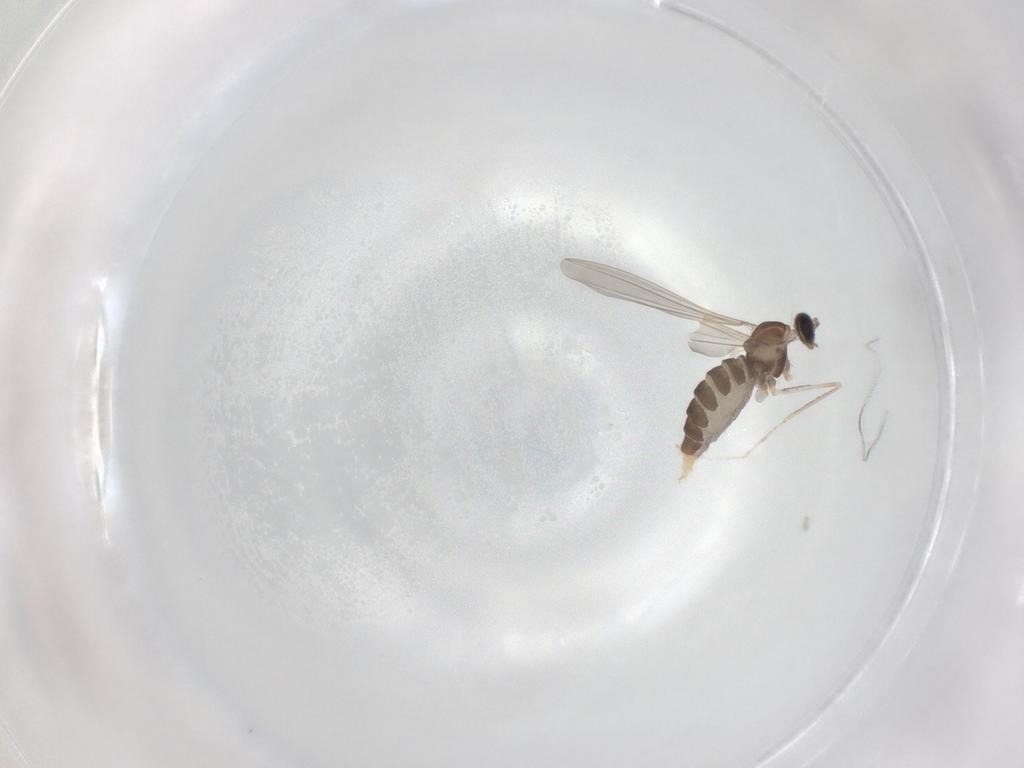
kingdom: Animalia
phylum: Arthropoda
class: Insecta
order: Diptera
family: Cecidomyiidae
